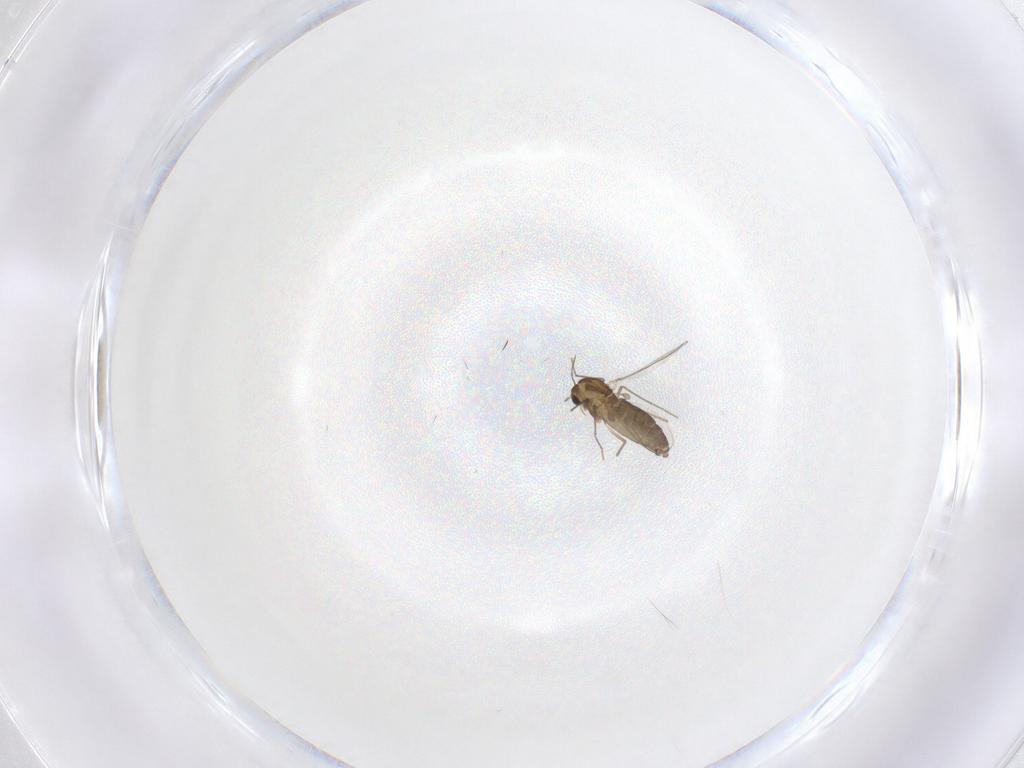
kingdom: Animalia
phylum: Arthropoda
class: Insecta
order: Diptera
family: Chironomidae
